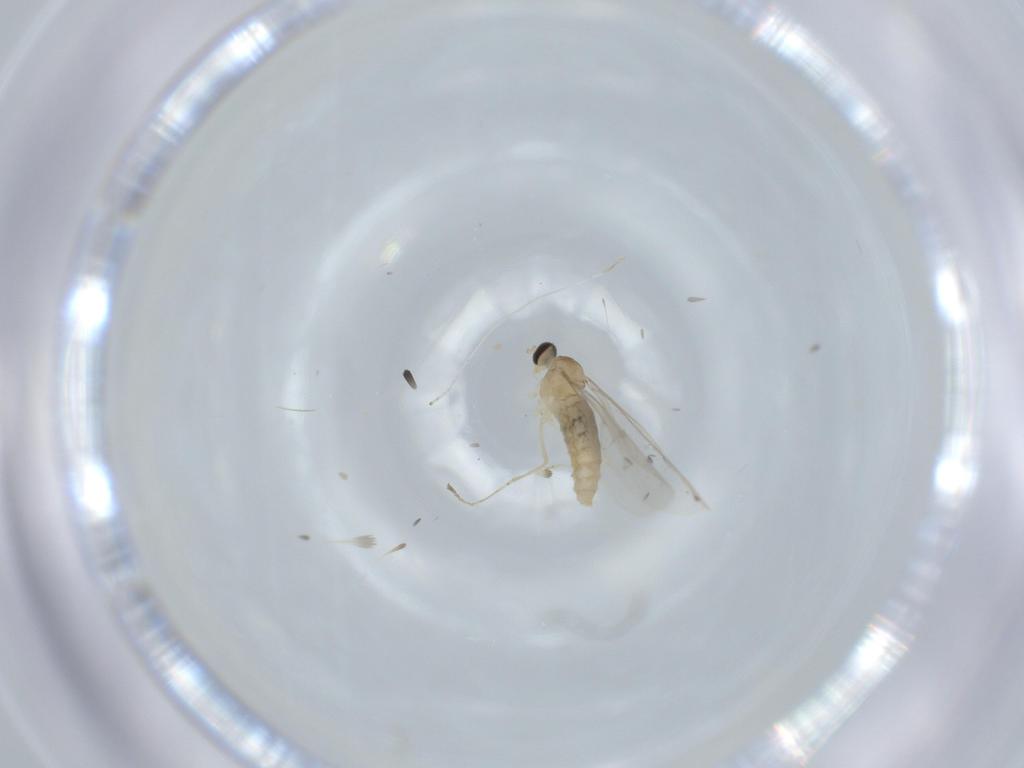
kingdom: Animalia
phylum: Arthropoda
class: Insecta
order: Diptera
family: Cecidomyiidae
